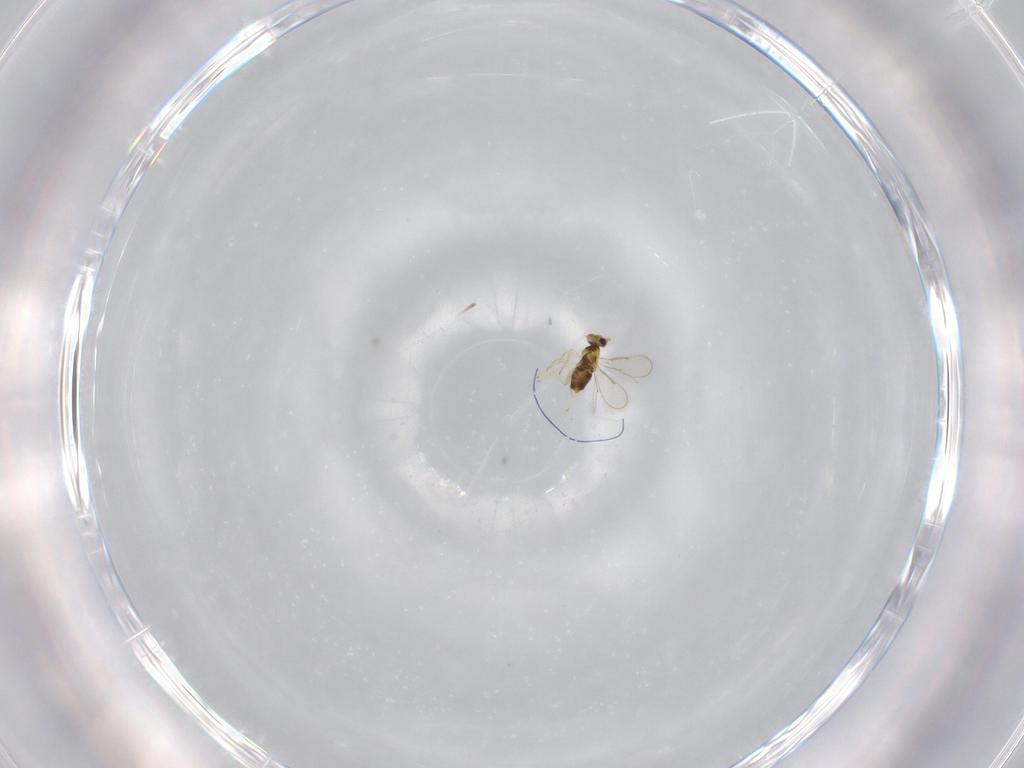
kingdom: Animalia
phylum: Arthropoda
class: Insecta
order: Hymenoptera
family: Aphelinidae
